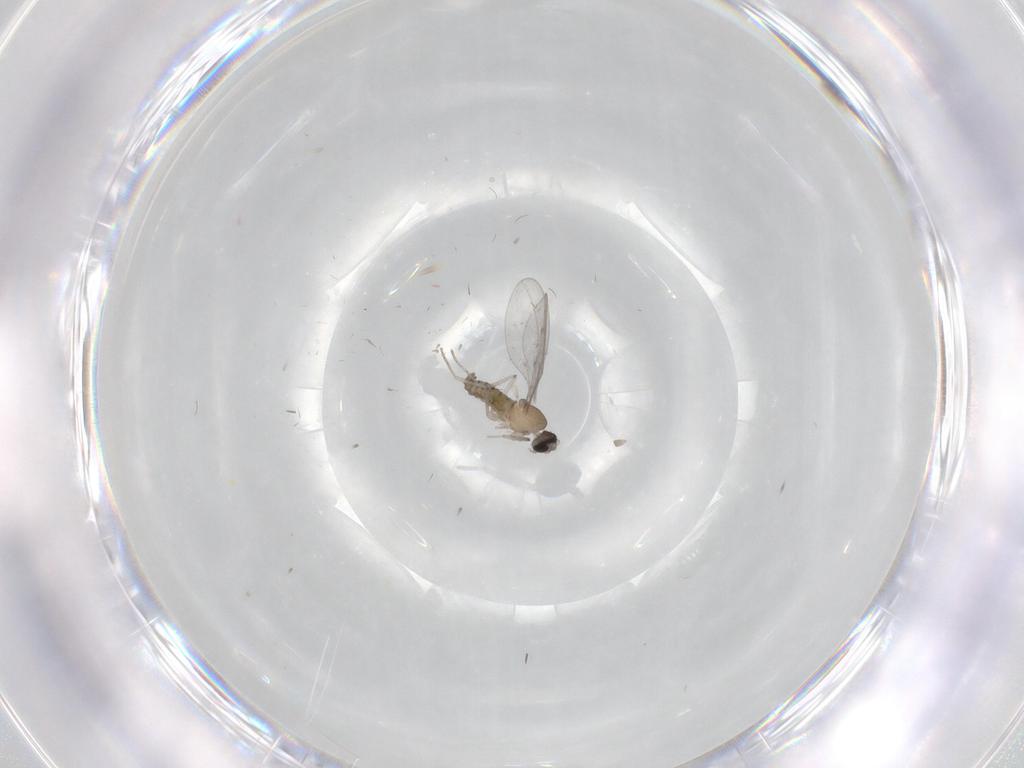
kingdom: Animalia
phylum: Arthropoda
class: Insecta
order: Diptera
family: Cecidomyiidae
